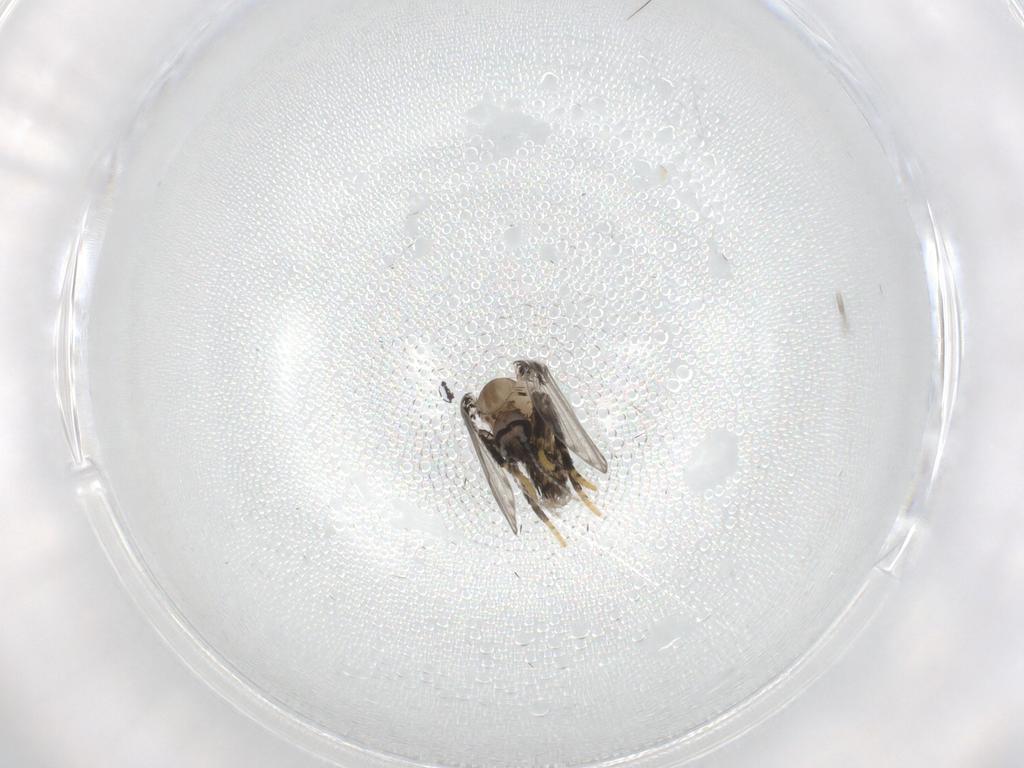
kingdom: Animalia
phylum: Arthropoda
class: Insecta
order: Diptera
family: Psychodidae
